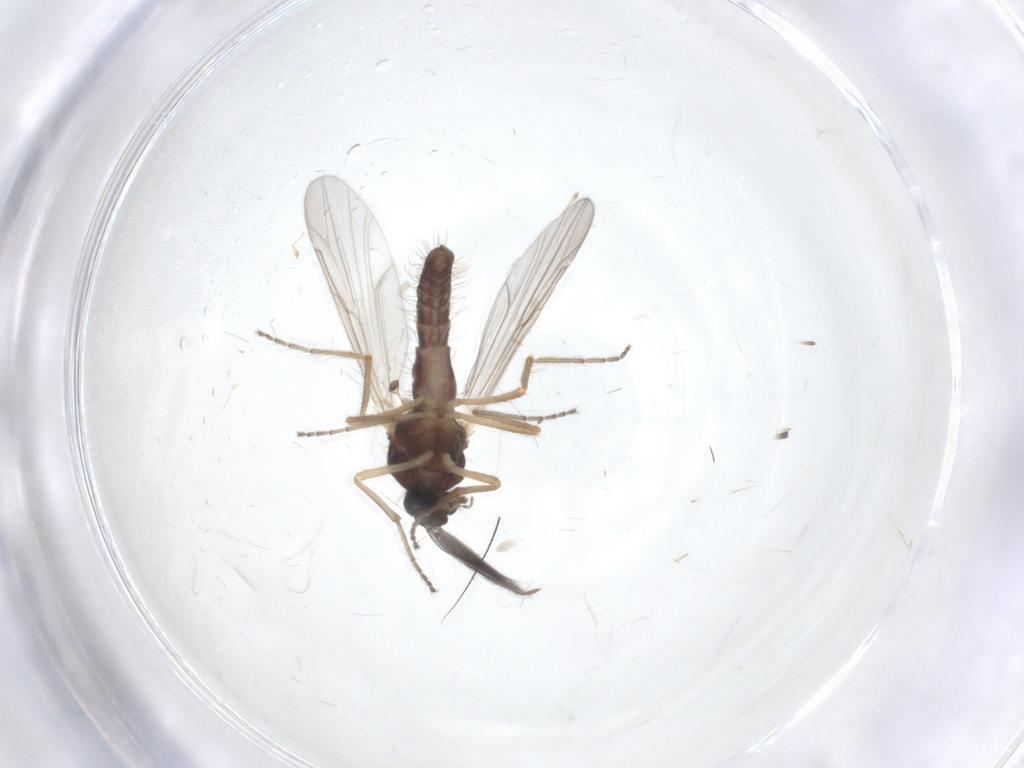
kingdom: Animalia
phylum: Arthropoda
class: Insecta
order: Diptera
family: Ceratopogonidae
